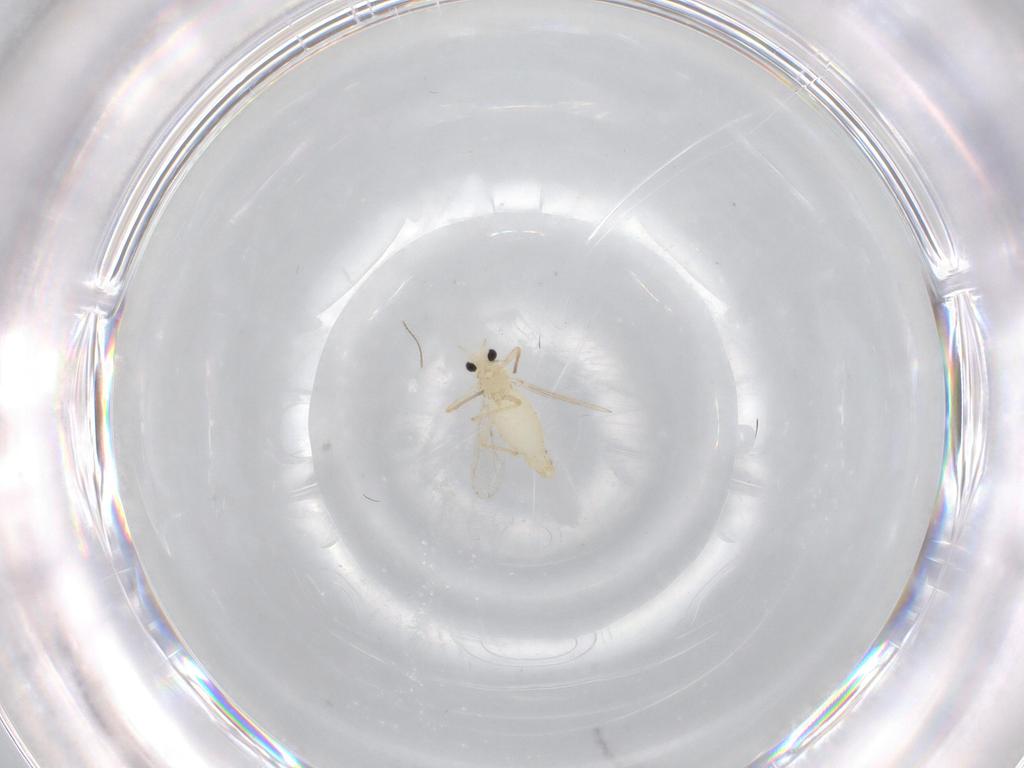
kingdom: Animalia
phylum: Arthropoda
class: Insecta
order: Diptera
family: Chironomidae
